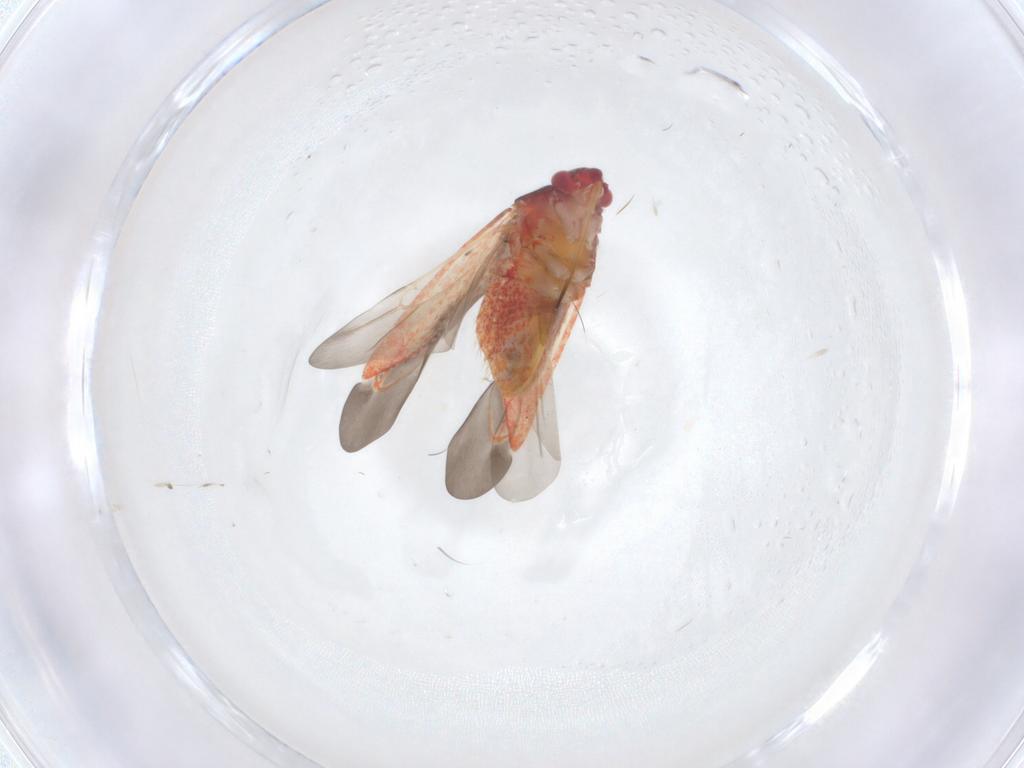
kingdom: Animalia
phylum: Arthropoda
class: Insecta
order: Hemiptera
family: Miridae
